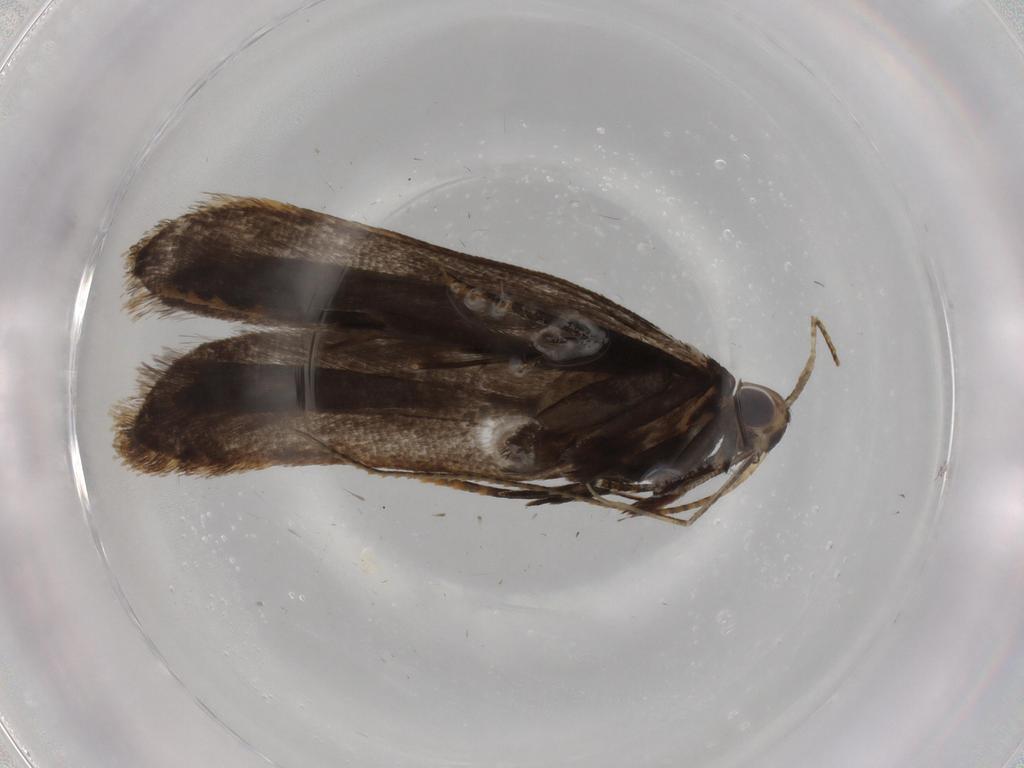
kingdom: Animalia
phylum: Arthropoda
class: Insecta
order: Lepidoptera
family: Gelechiidae
